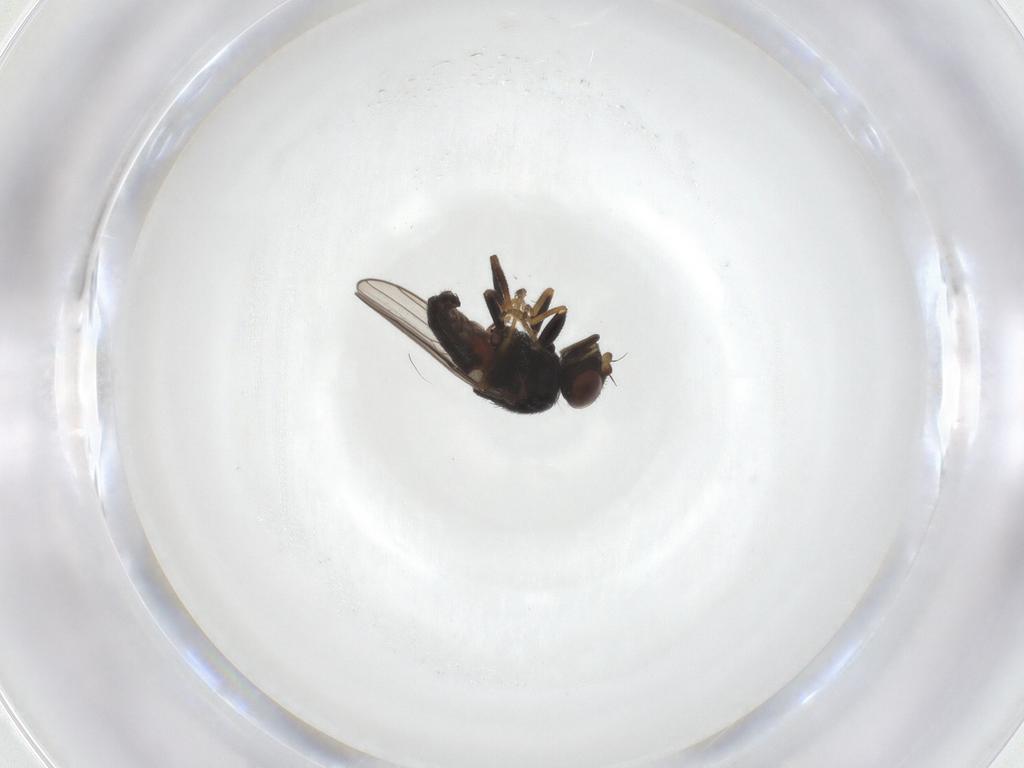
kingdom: Animalia
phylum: Arthropoda
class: Insecta
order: Diptera
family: Chloropidae
